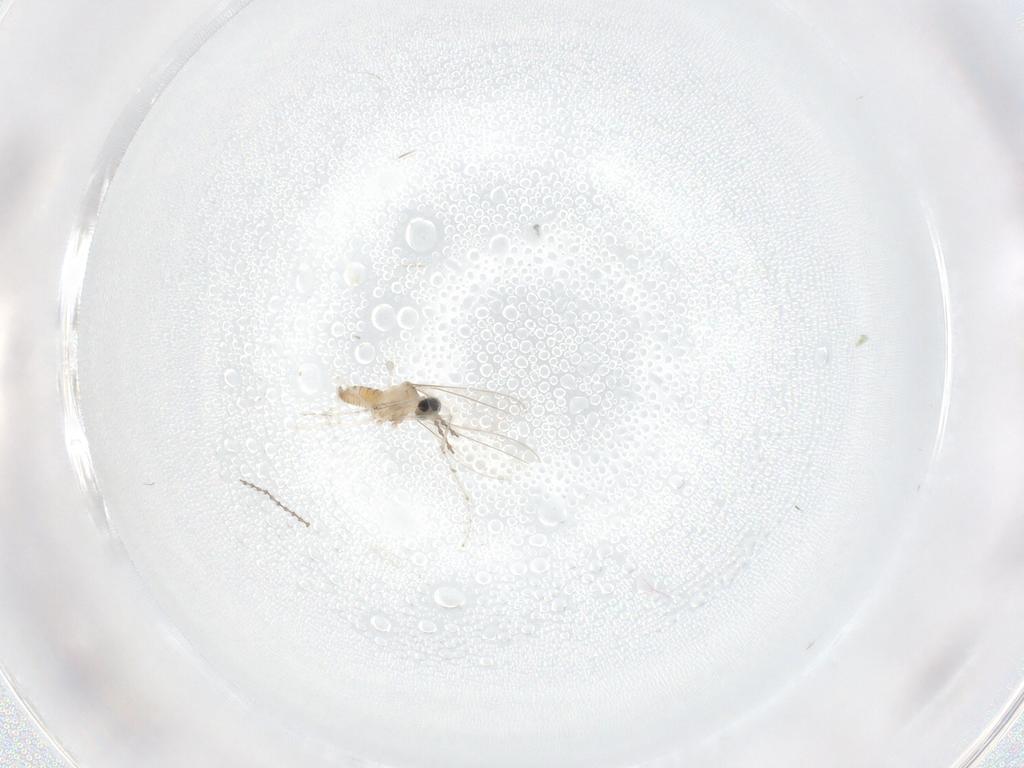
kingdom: Animalia
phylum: Arthropoda
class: Insecta
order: Diptera
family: Cecidomyiidae
